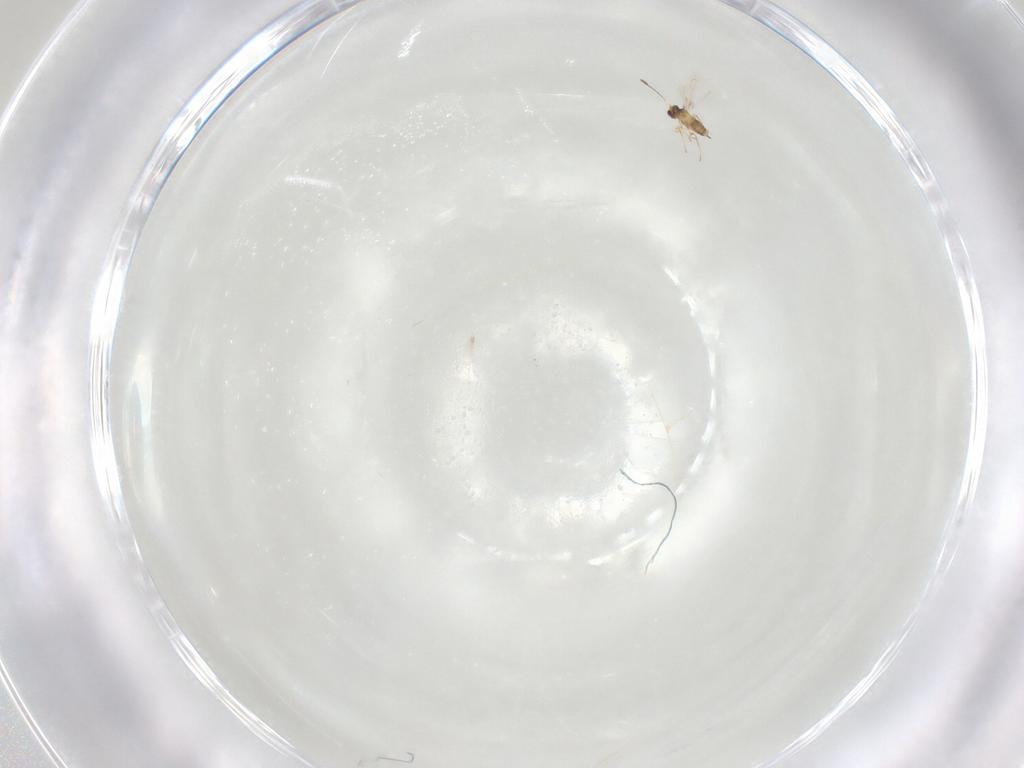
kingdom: Animalia
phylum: Arthropoda
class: Insecta
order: Hymenoptera
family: Mymaridae
